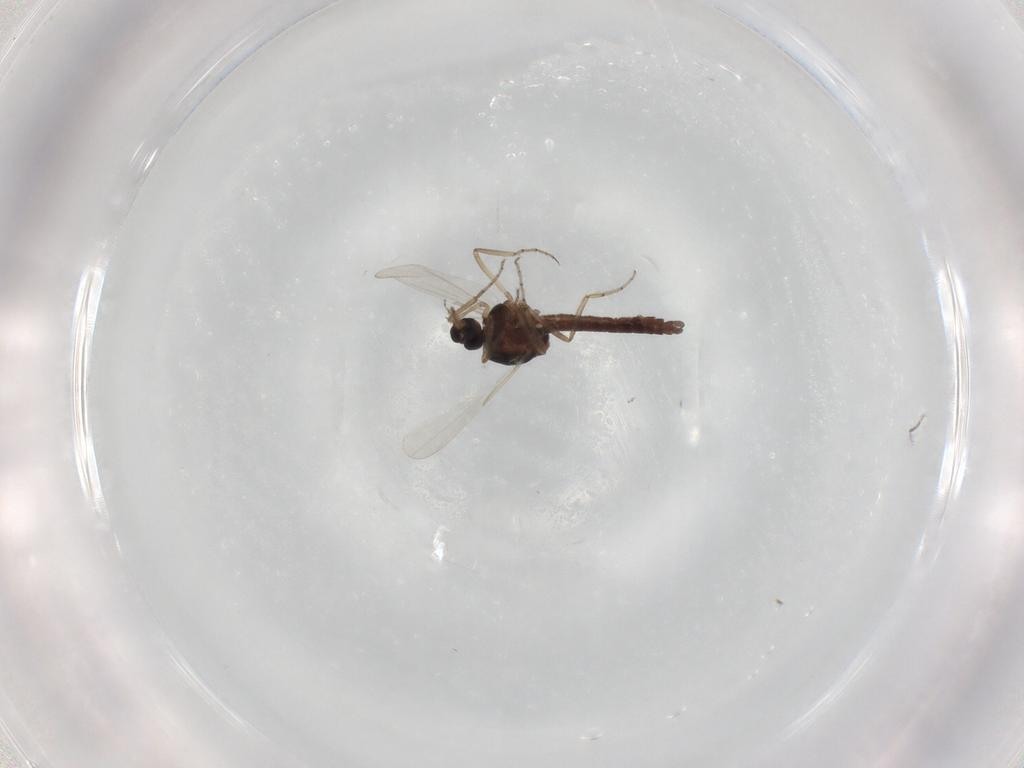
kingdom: Animalia
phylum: Arthropoda
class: Insecta
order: Diptera
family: Ceratopogonidae
